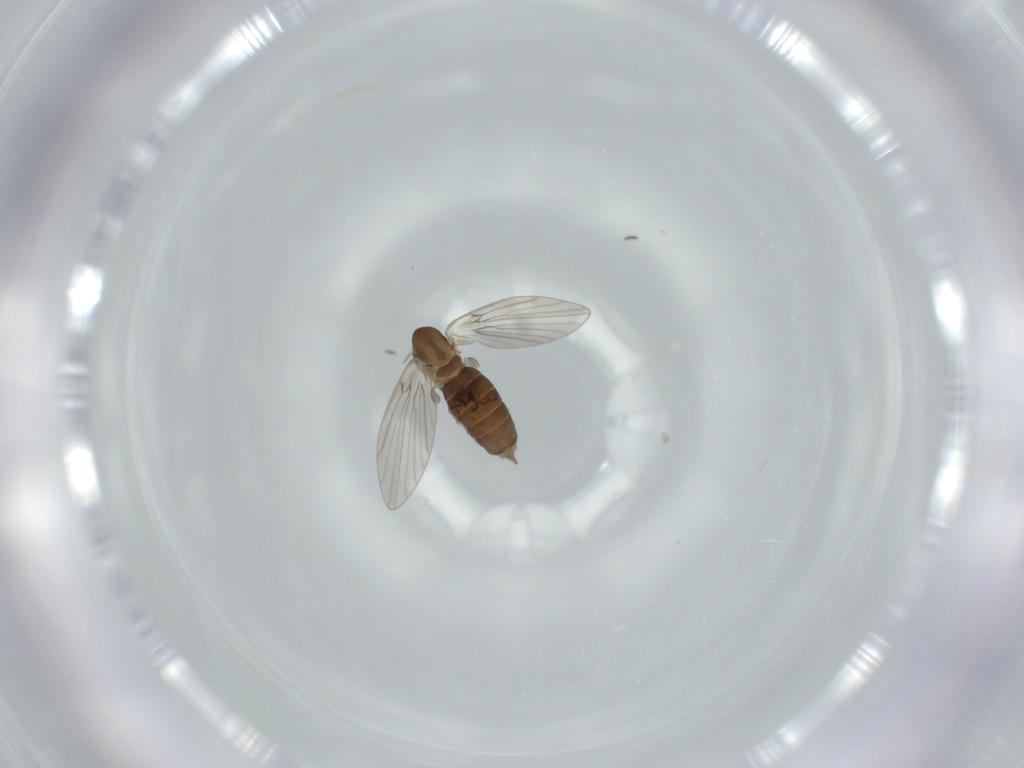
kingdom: Animalia
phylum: Arthropoda
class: Insecta
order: Diptera
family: Limoniidae
